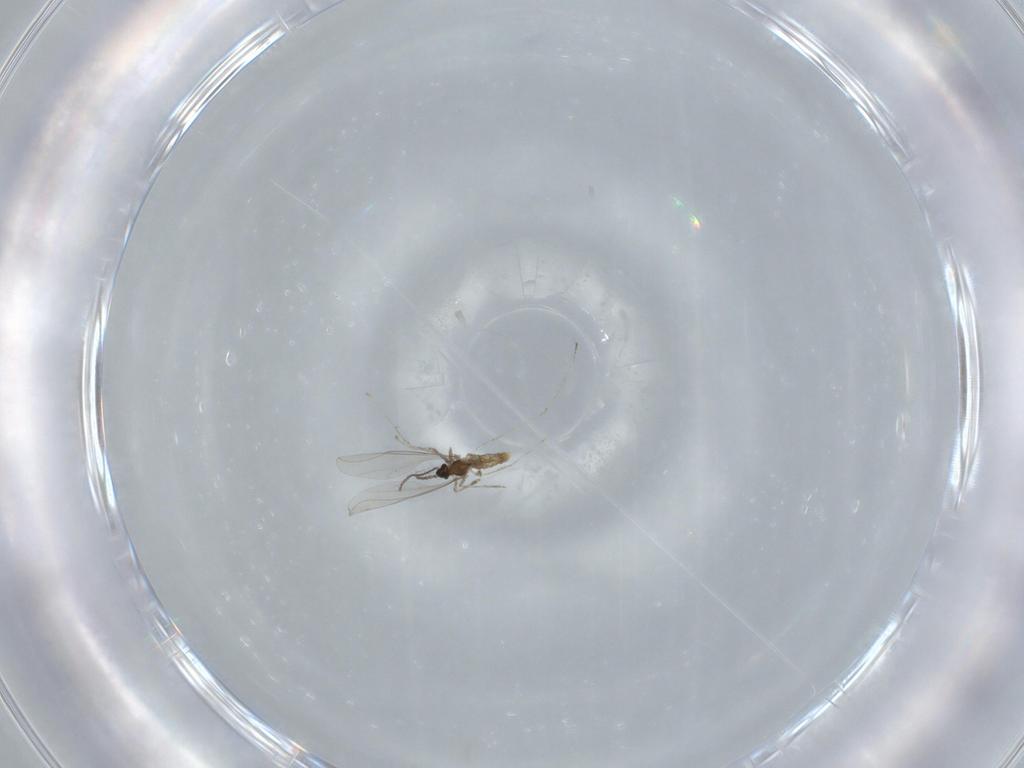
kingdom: Animalia
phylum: Arthropoda
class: Insecta
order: Diptera
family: Cecidomyiidae
